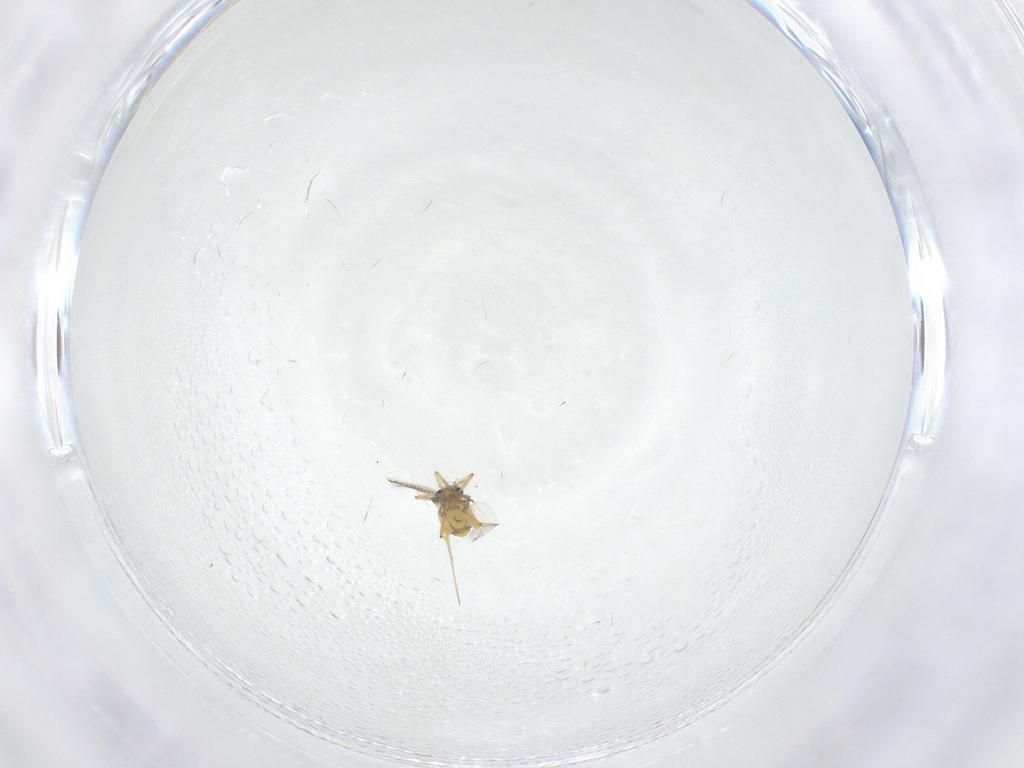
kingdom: Animalia
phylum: Arthropoda
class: Insecta
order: Diptera
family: Ceratopogonidae
